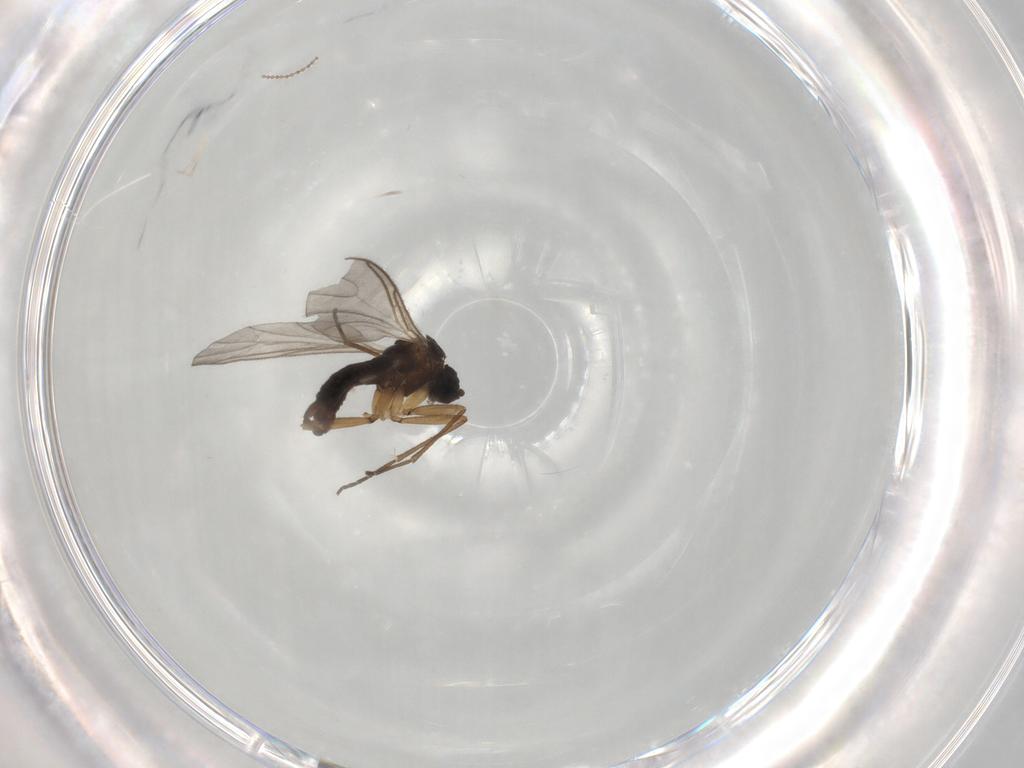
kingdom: Animalia
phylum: Arthropoda
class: Insecta
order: Diptera
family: Sciaridae
